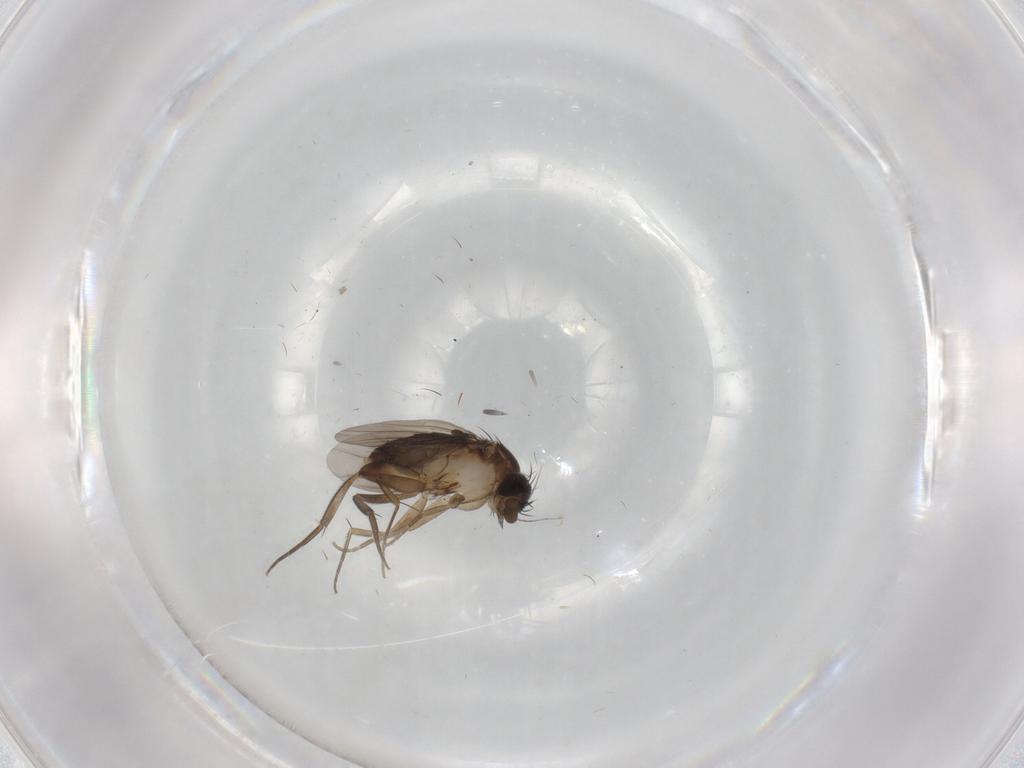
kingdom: Animalia
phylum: Arthropoda
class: Insecta
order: Diptera
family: Phoridae
